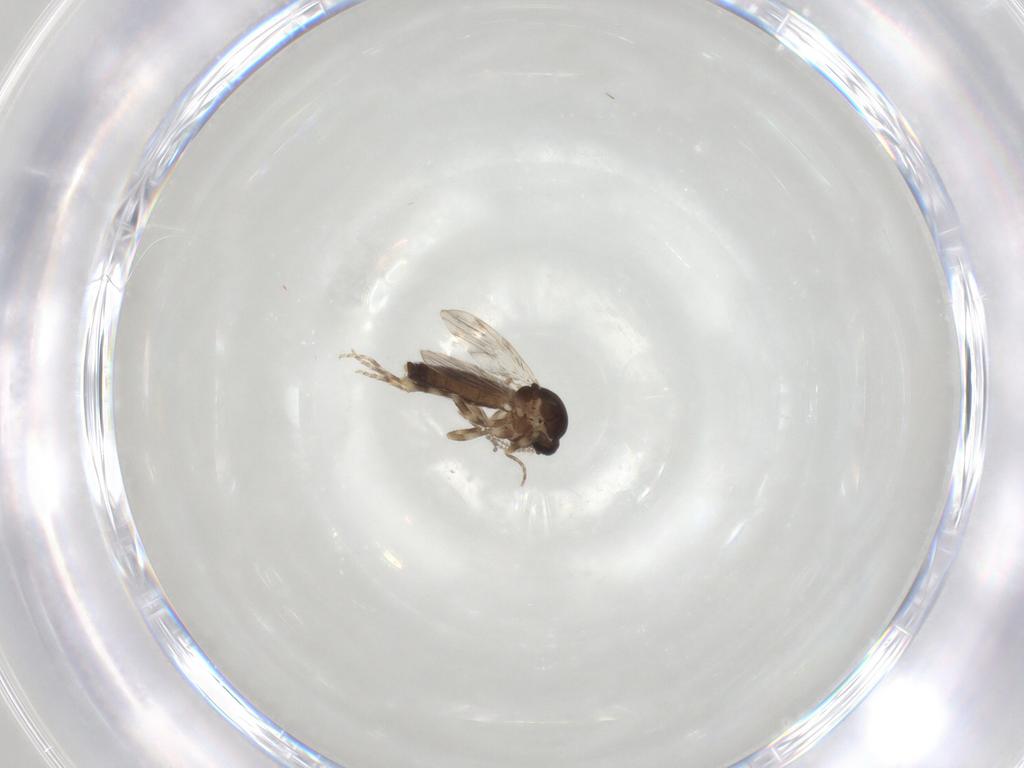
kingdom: Animalia
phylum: Arthropoda
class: Insecta
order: Diptera
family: Ceratopogonidae
